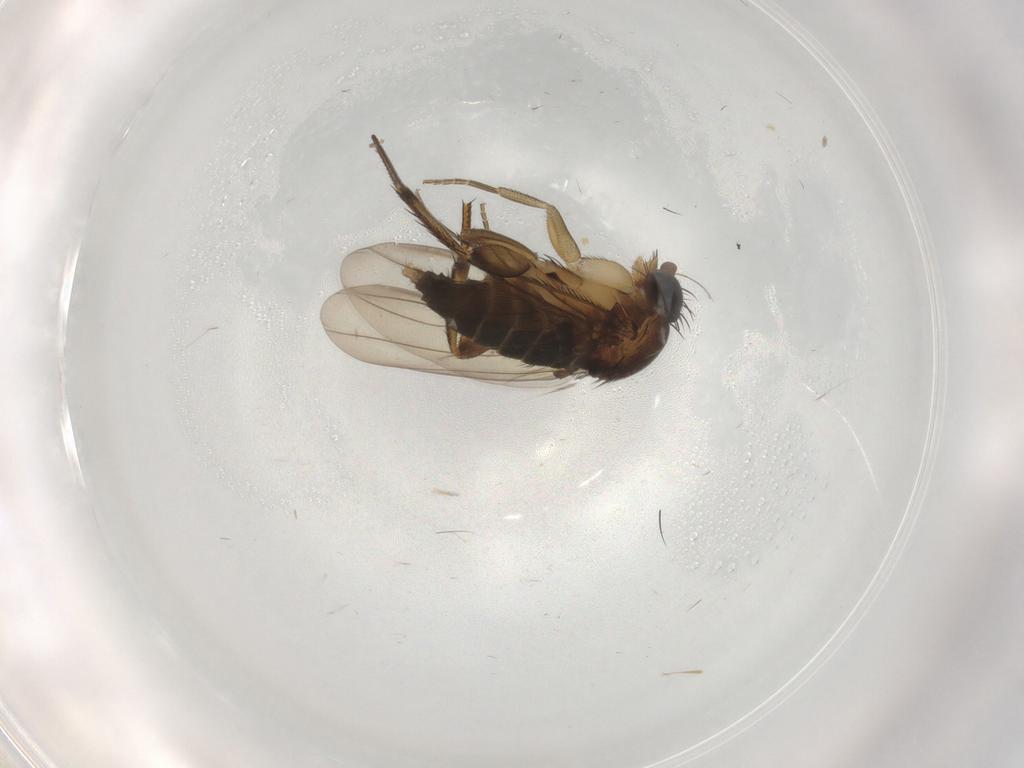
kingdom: Animalia
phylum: Arthropoda
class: Insecta
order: Diptera
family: Phoridae
